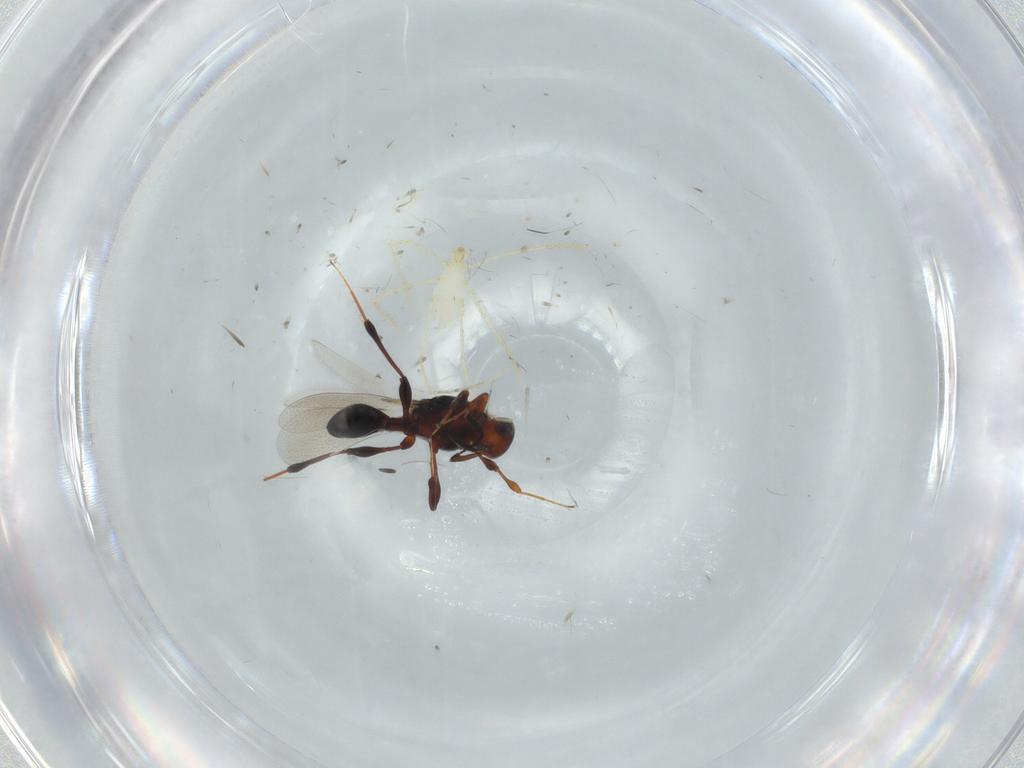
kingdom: Animalia
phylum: Arthropoda
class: Arachnida
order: Trombidiformes
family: Erythraeidae
